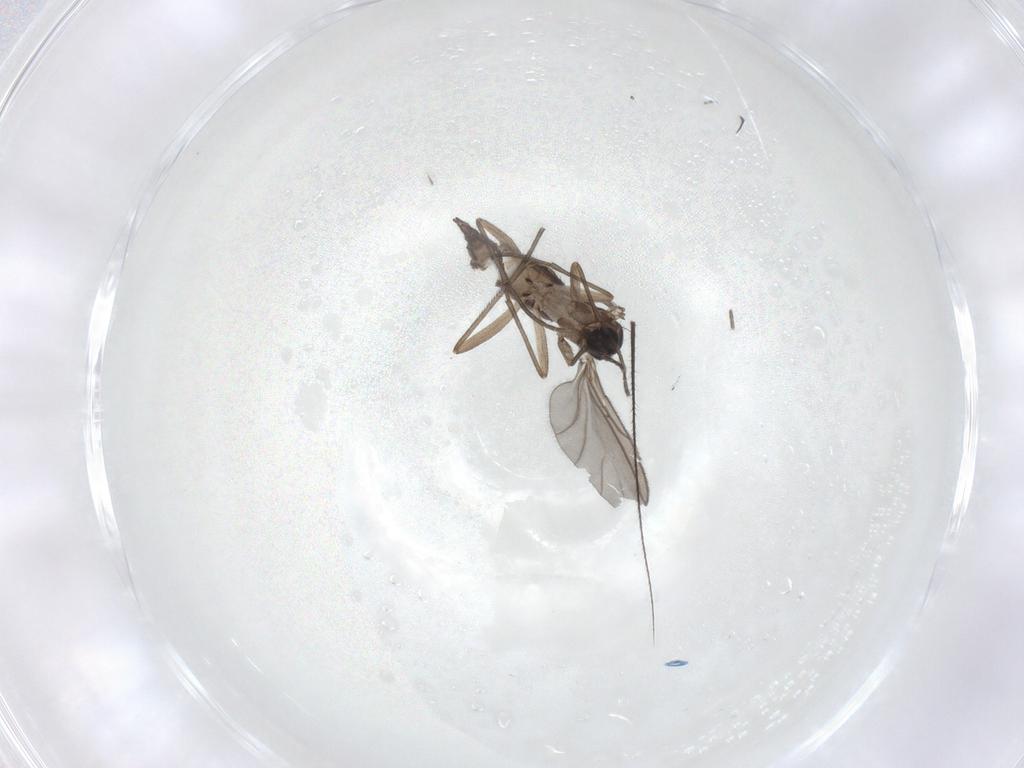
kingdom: Animalia
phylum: Arthropoda
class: Insecta
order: Diptera
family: Sciaridae
